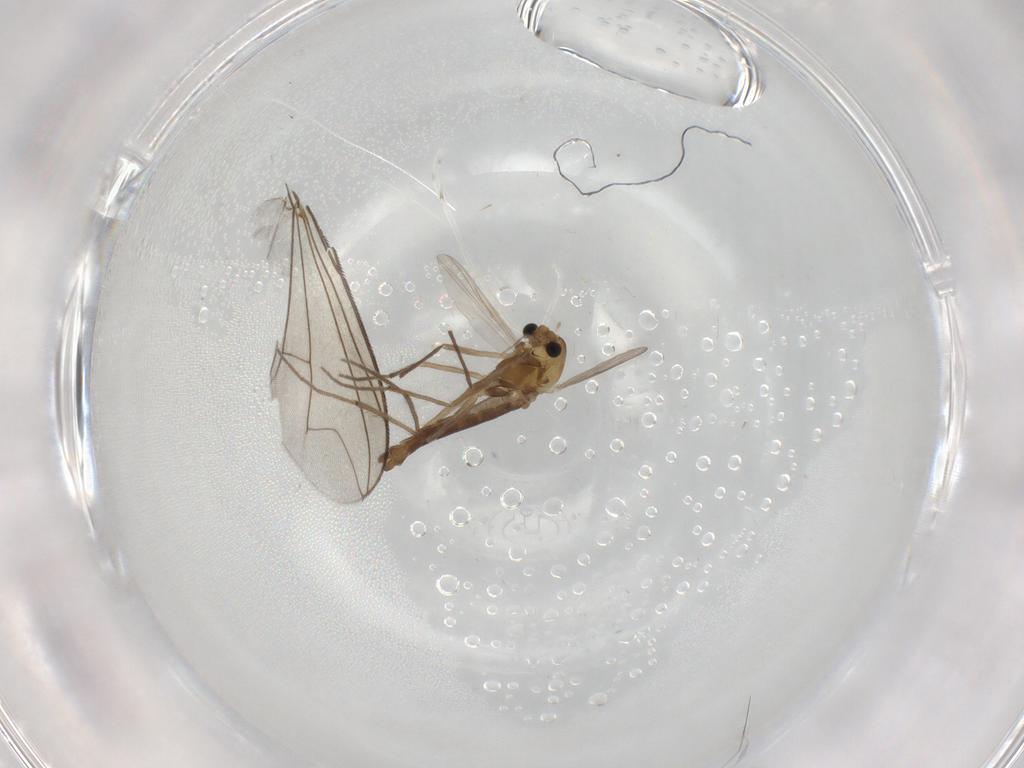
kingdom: Animalia
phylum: Arthropoda
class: Insecta
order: Diptera
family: Chironomidae
